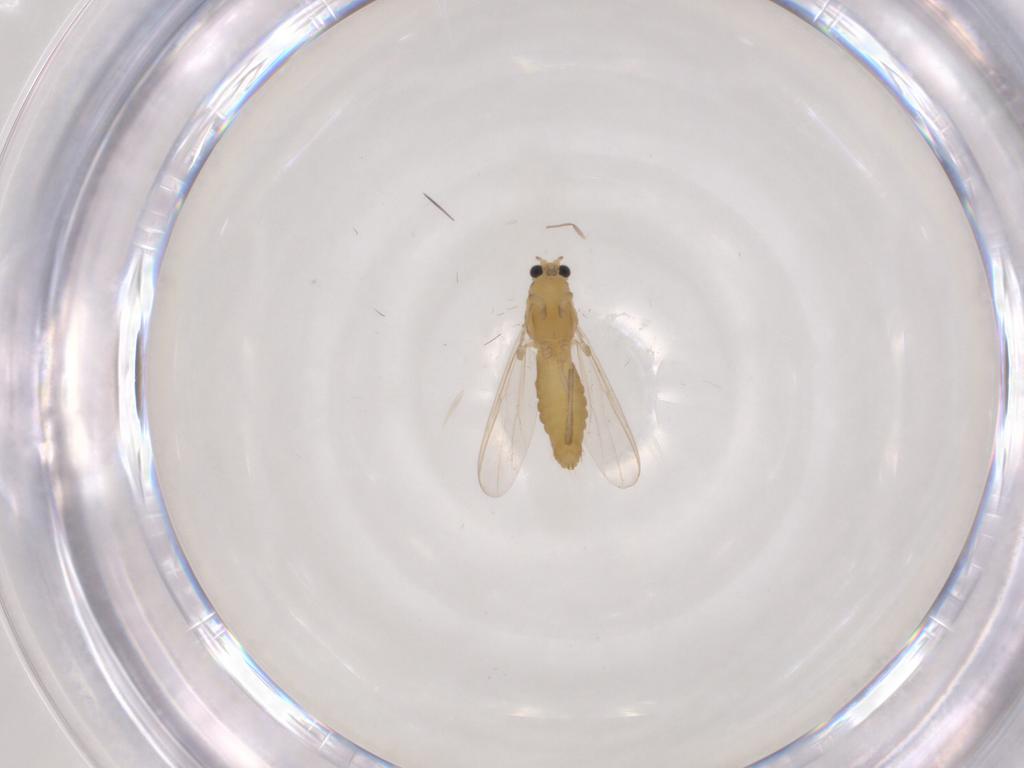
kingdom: Animalia
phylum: Arthropoda
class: Insecta
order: Diptera
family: Chironomidae
